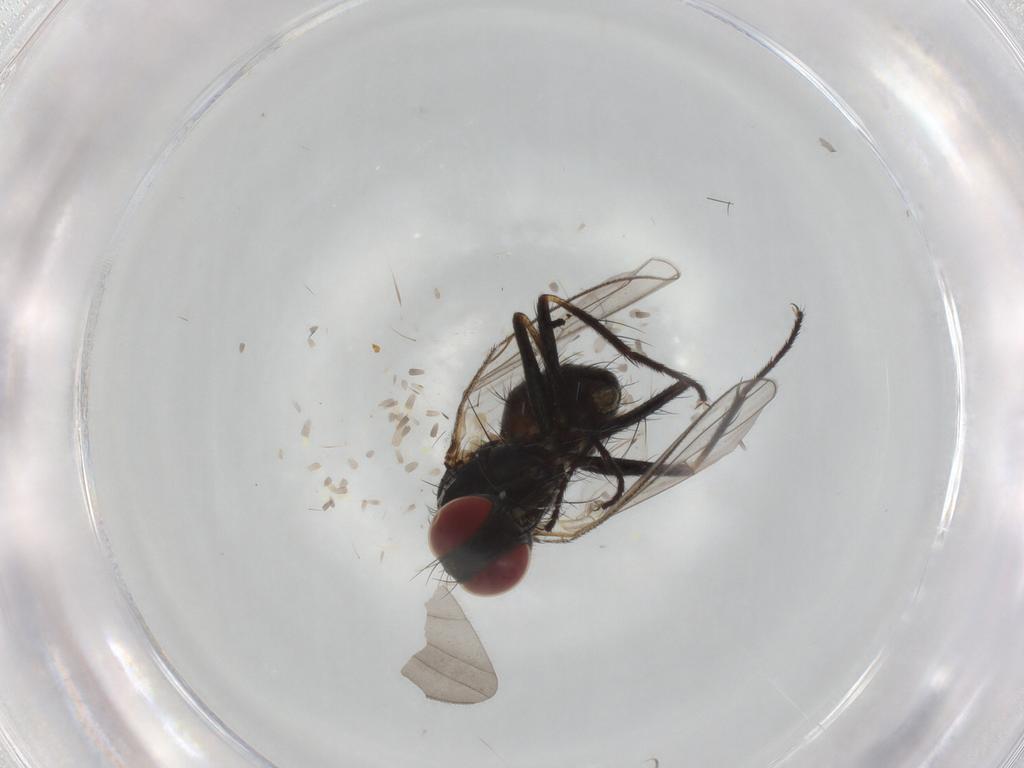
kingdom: Animalia
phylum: Arthropoda
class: Insecta
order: Diptera
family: Muscidae
